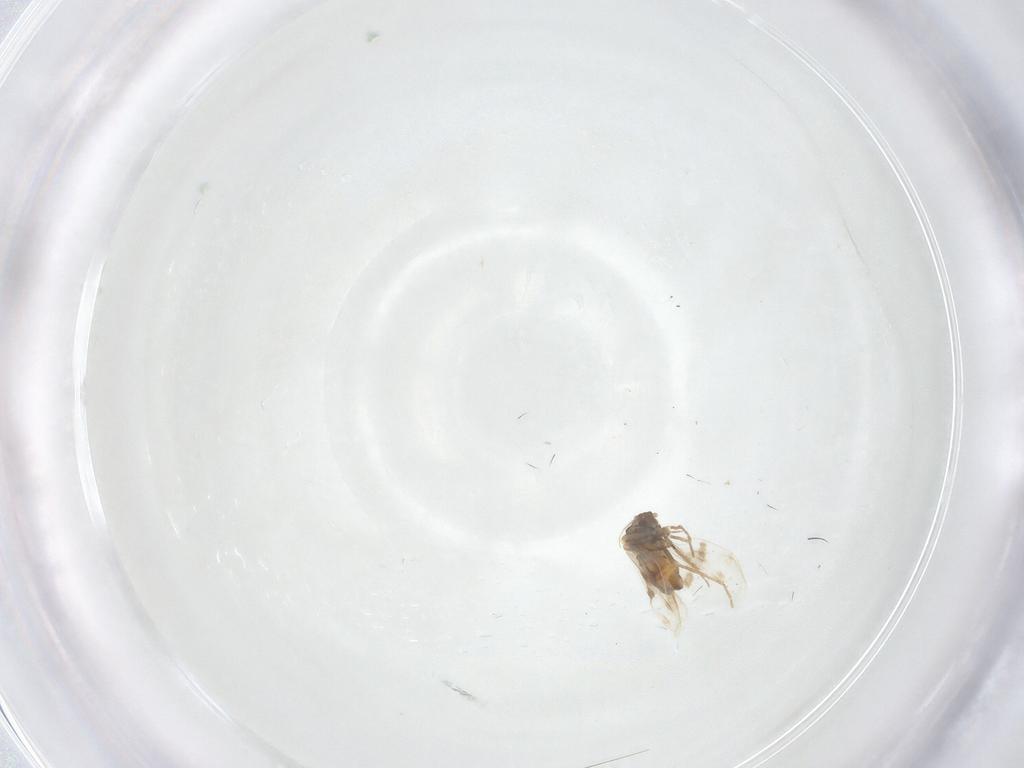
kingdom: Animalia
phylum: Arthropoda
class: Insecta
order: Hemiptera
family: Aleyrodidae
